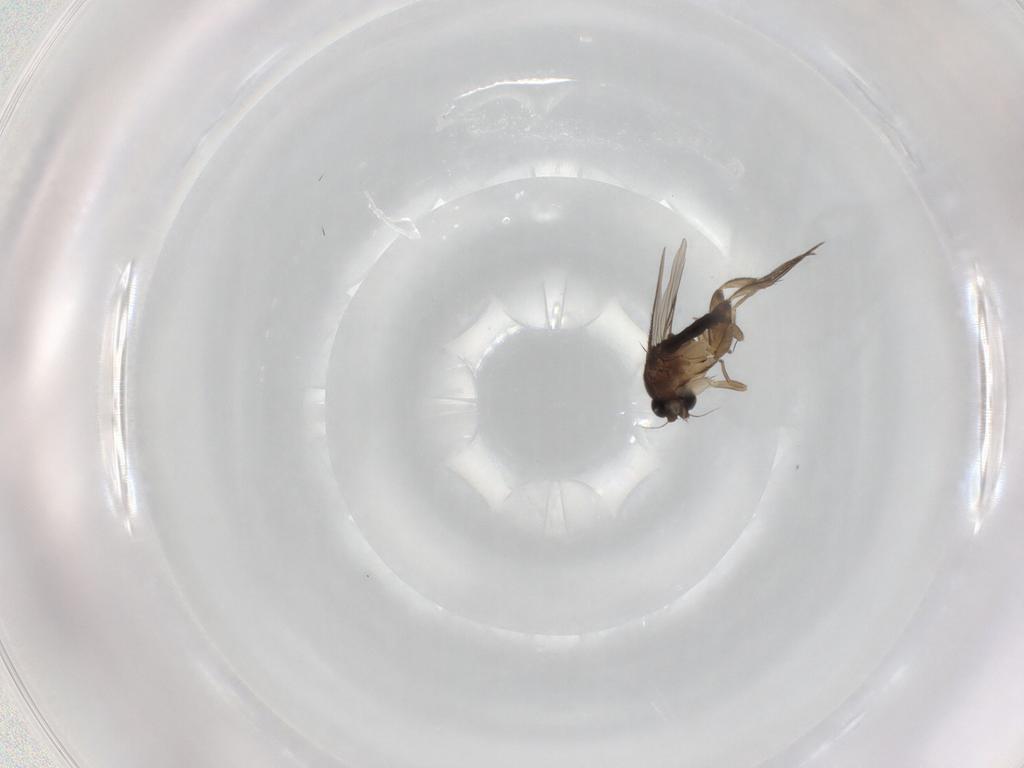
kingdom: Animalia
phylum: Arthropoda
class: Insecta
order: Diptera
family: Phoridae
